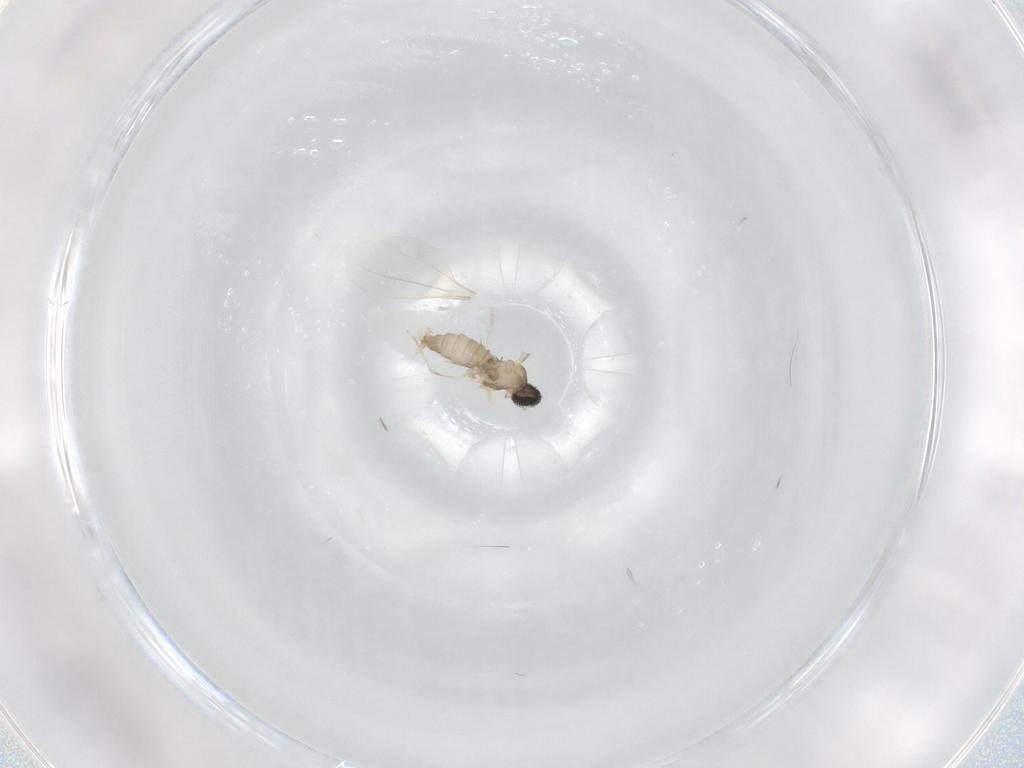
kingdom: Animalia
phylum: Arthropoda
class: Insecta
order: Diptera
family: Cecidomyiidae
